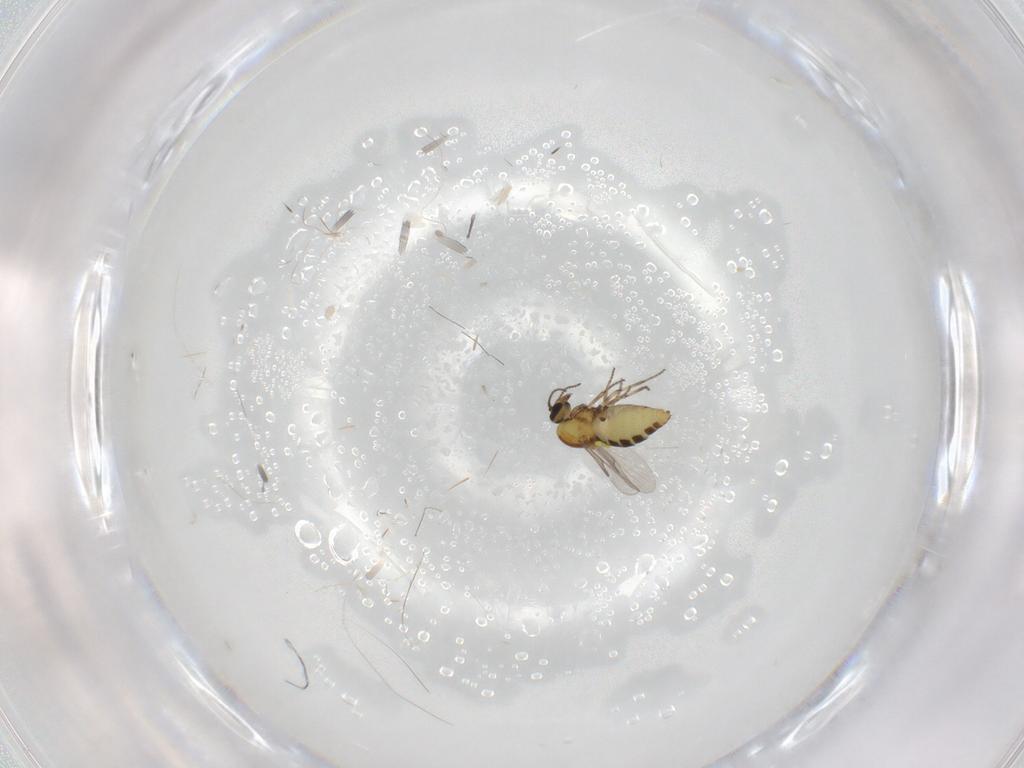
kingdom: Animalia
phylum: Arthropoda
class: Insecta
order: Diptera
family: Ceratopogonidae
